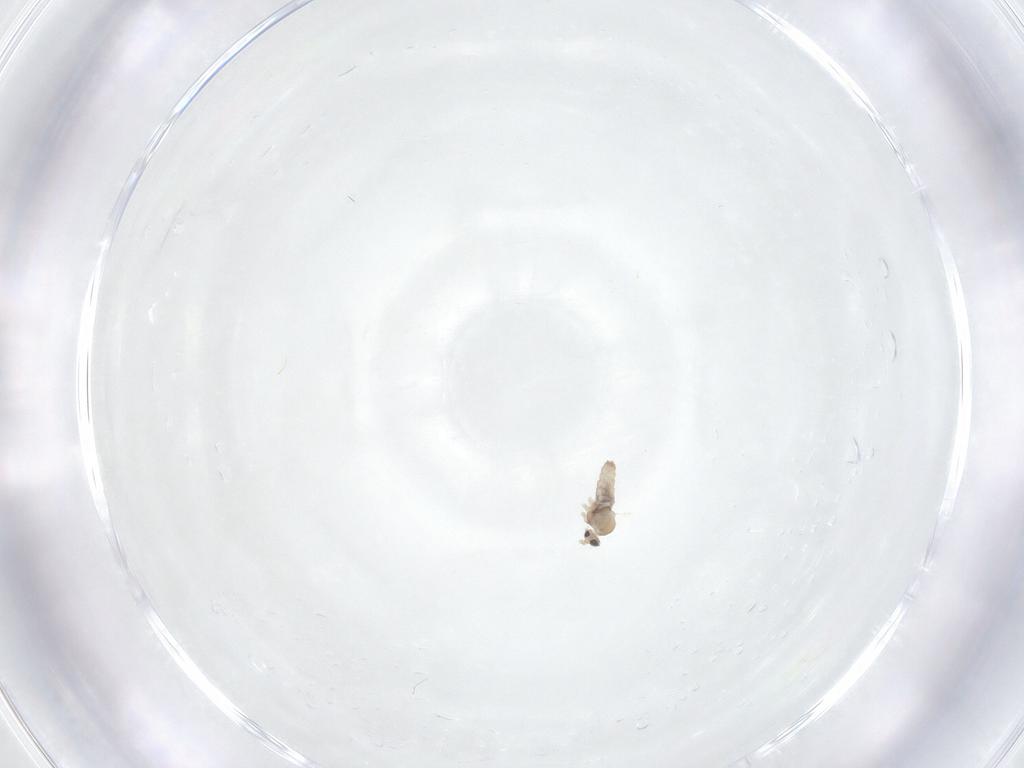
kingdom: Animalia
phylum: Arthropoda
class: Insecta
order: Diptera
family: Cecidomyiidae
